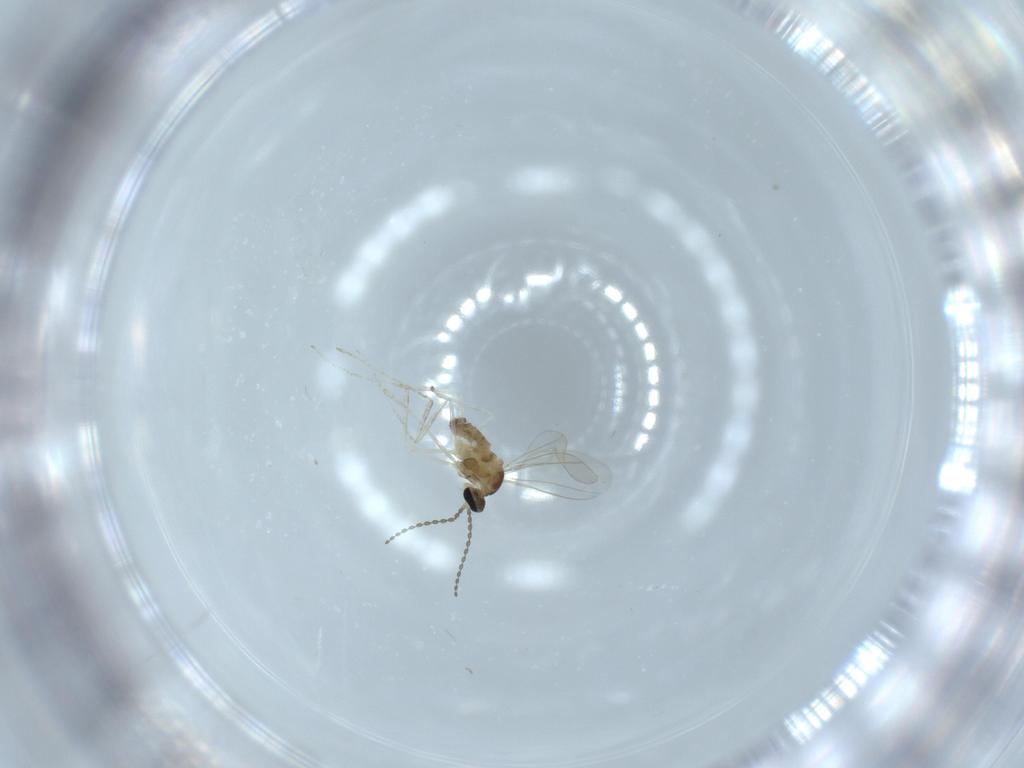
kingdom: Animalia
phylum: Arthropoda
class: Insecta
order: Diptera
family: Cecidomyiidae
